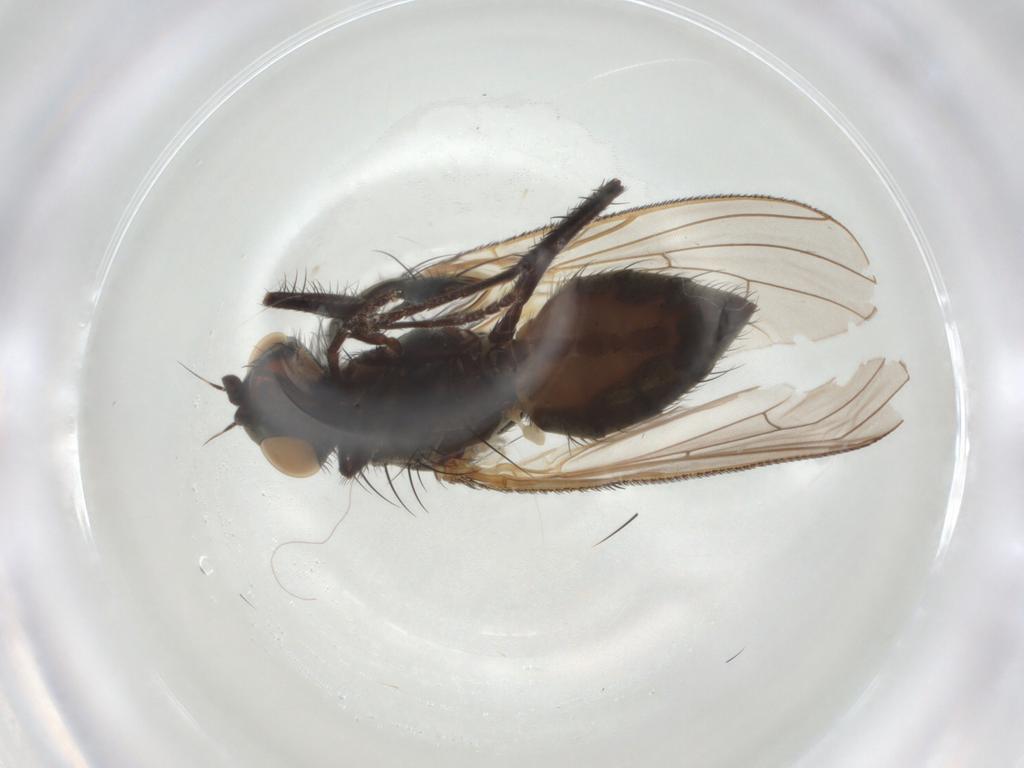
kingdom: Animalia
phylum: Arthropoda
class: Insecta
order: Diptera
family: Anthomyiidae
